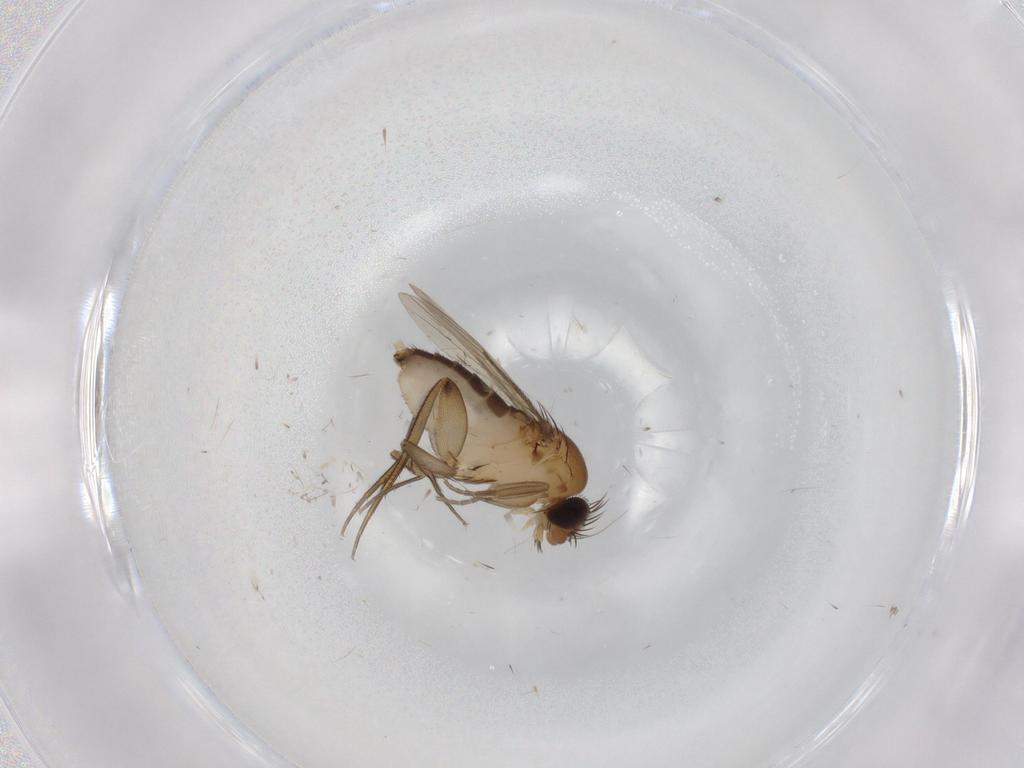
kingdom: Animalia
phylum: Arthropoda
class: Insecta
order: Diptera
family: Phoridae
